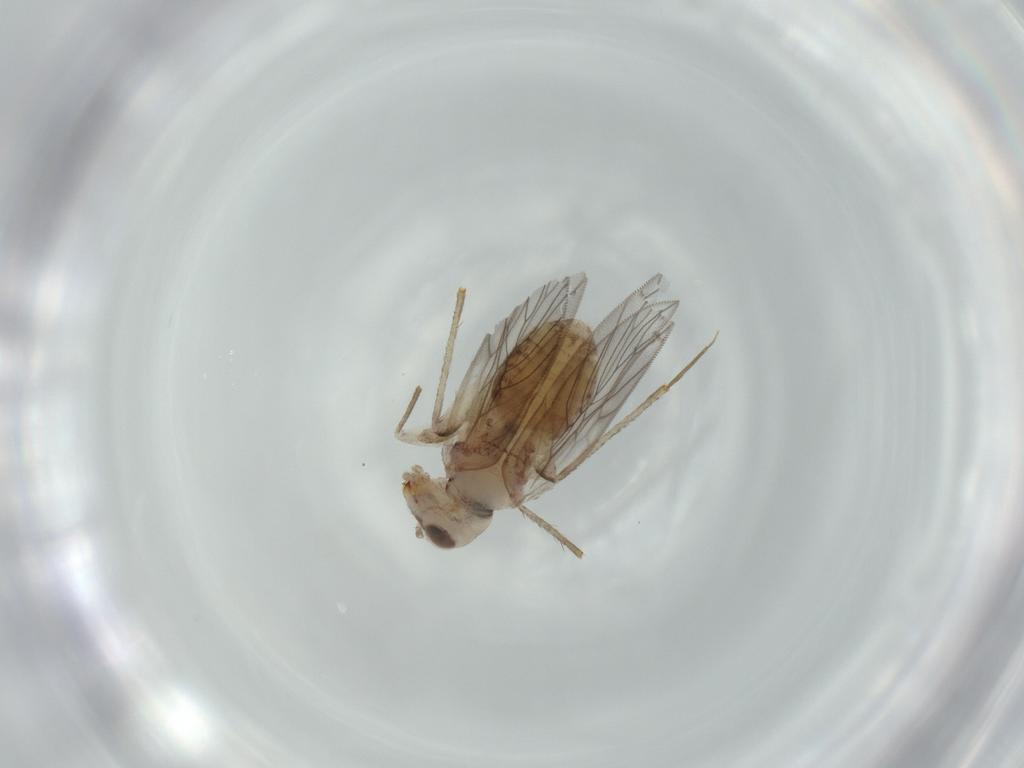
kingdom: Animalia
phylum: Arthropoda
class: Insecta
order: Psocodea
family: Lepidopsocidae
